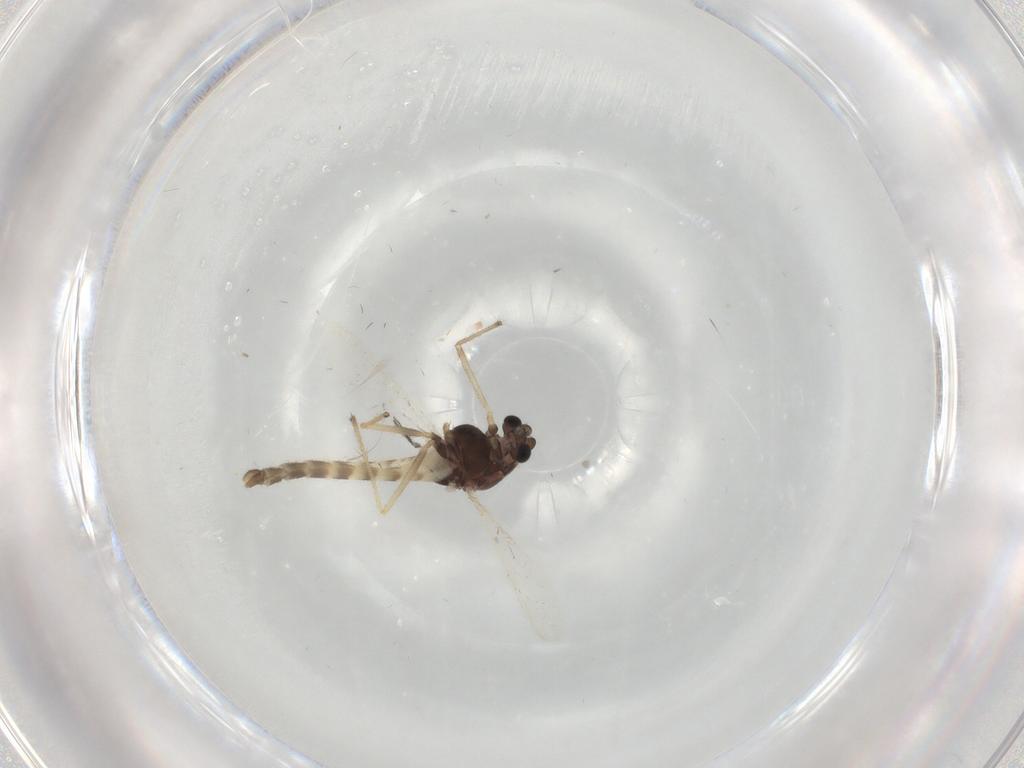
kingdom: Animalia
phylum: Arthropoda
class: Insecta
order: Diptera
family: Chironomidae
